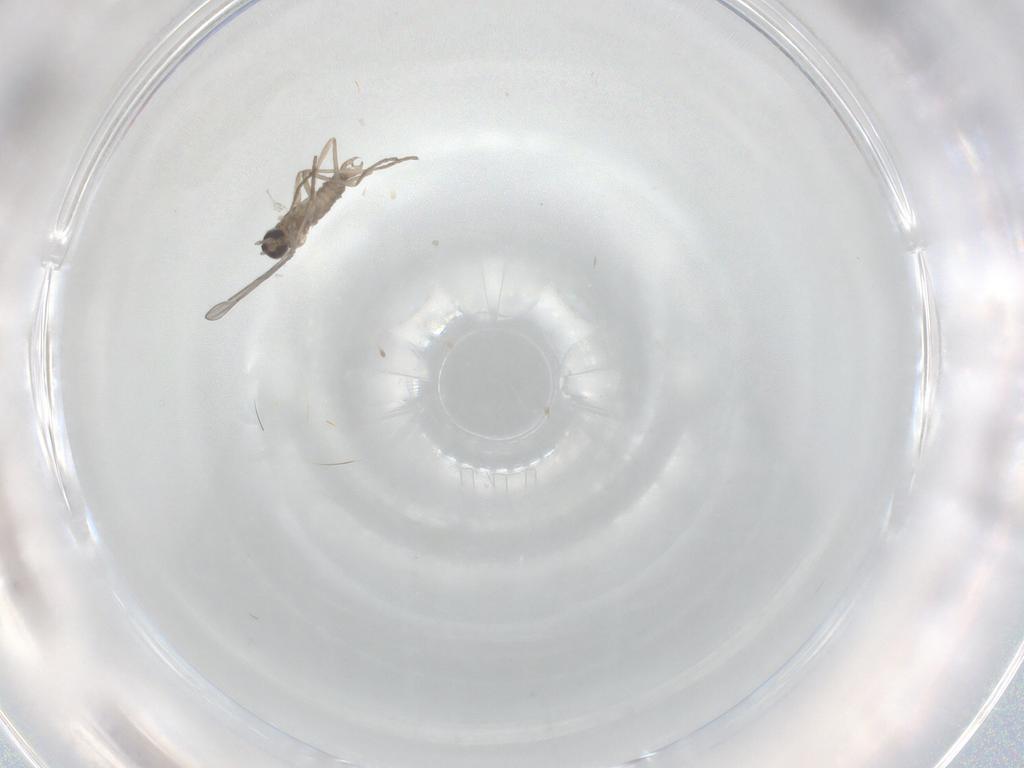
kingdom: Animalia
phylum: Arthropoda
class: Insecta
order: Diptera
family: Cecidomyiidae
